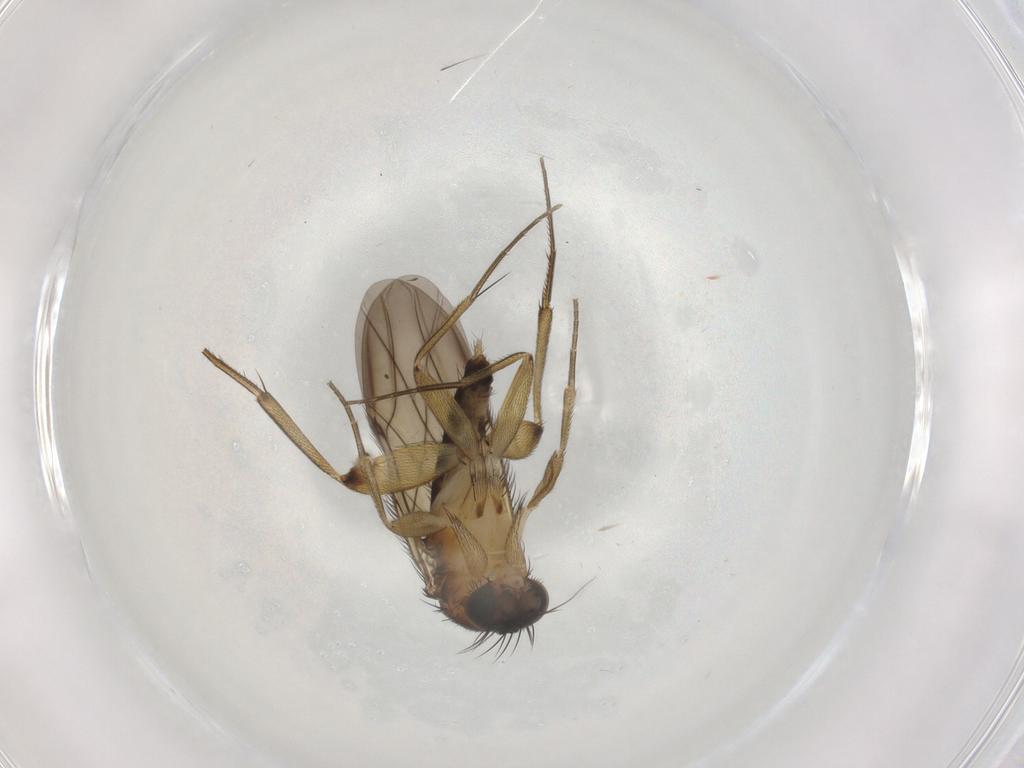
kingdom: Animalia
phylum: Arthropoda
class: Insecta
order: Diptera
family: Phoridae
